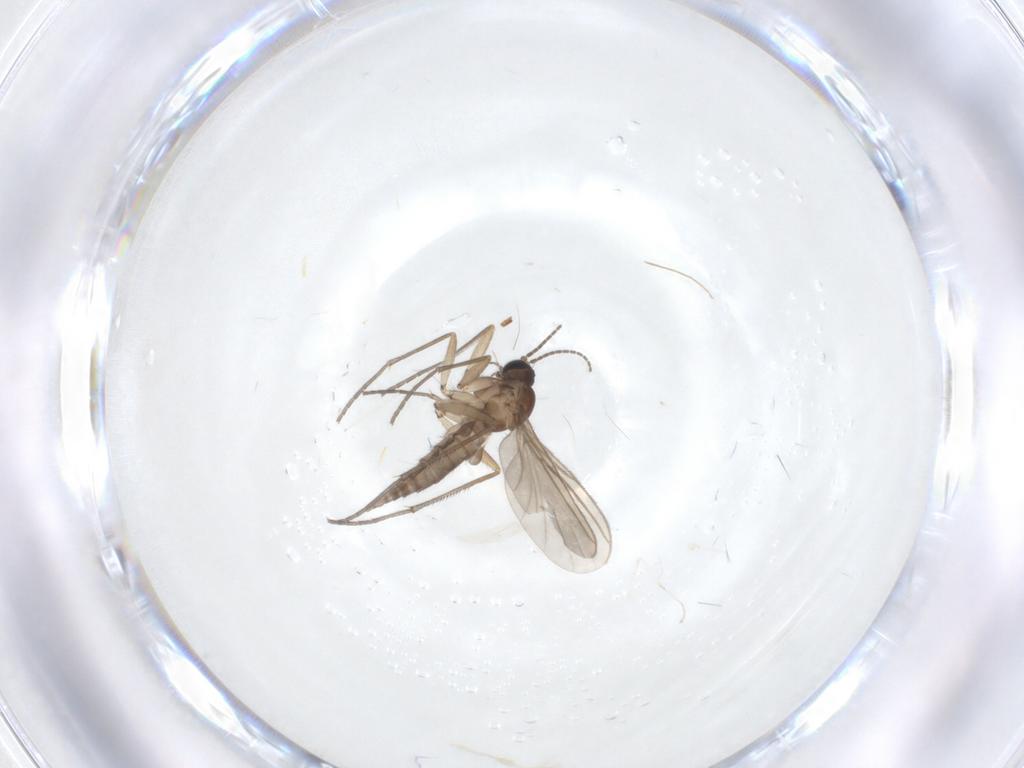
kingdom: Animalia
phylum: Arthropoda
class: Insecta
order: Diptera
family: Sciaridae
